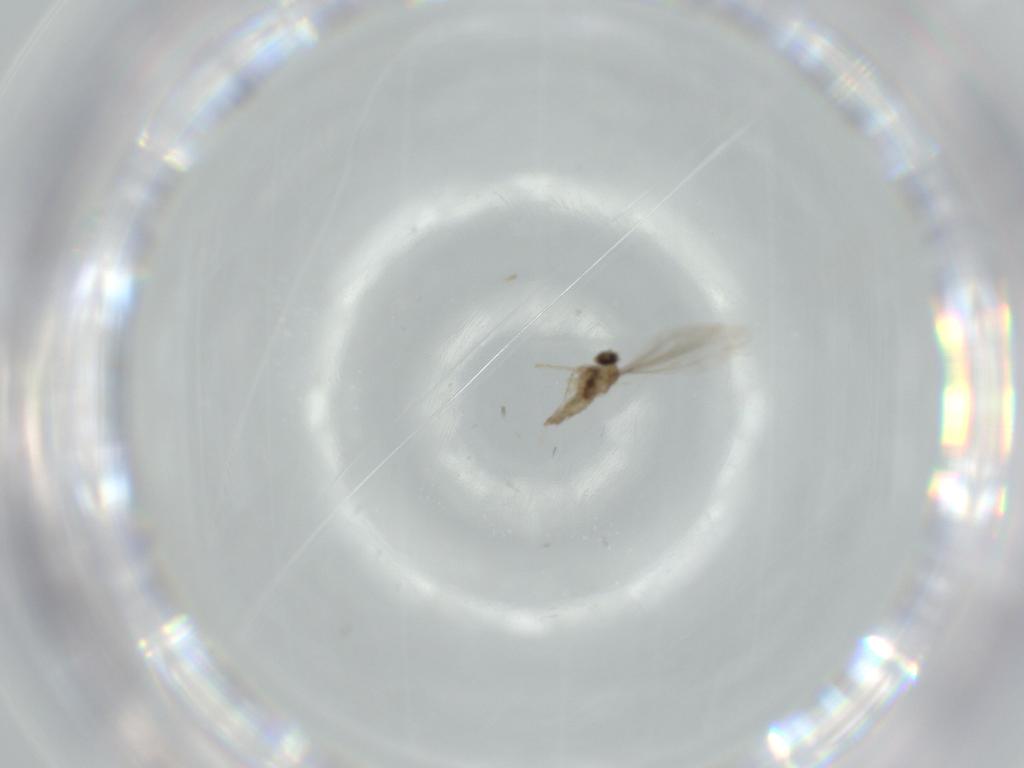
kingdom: Animalia
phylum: Arthropoda
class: Insecta
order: Diptera
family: Cecidomyiidae
